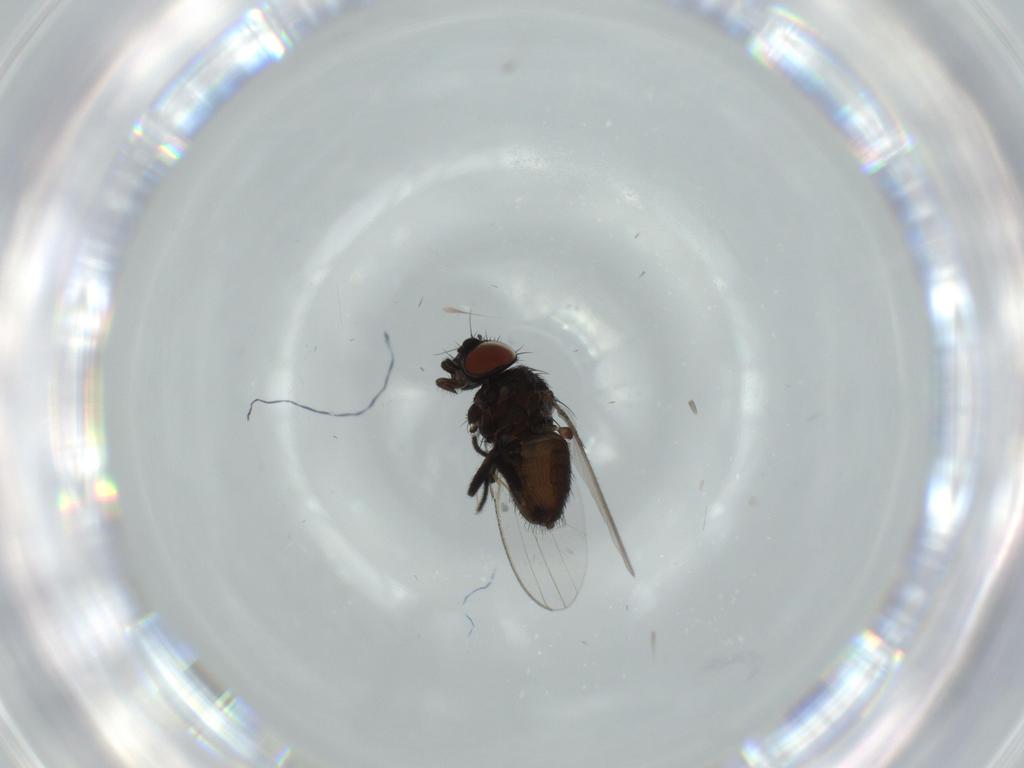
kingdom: Animalia
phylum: Arthropoda
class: Insecta
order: Diptera
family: Milichiidae
